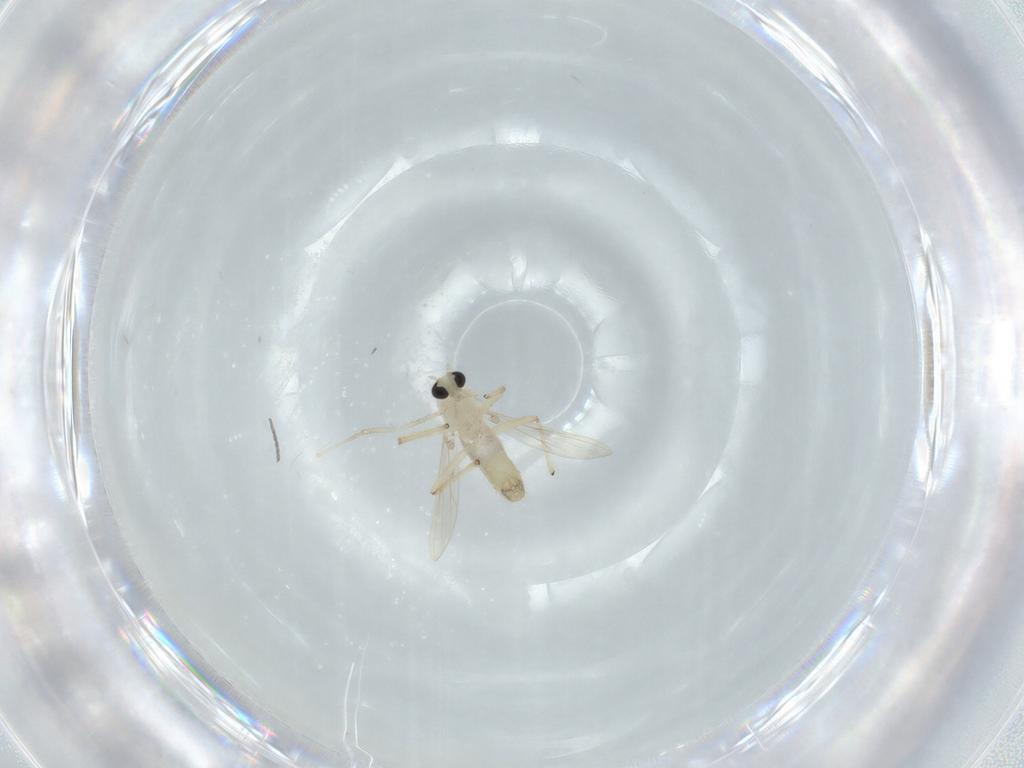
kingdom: Animalia
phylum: Arthropoda
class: Insecta
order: Diptera
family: Chironomidae
